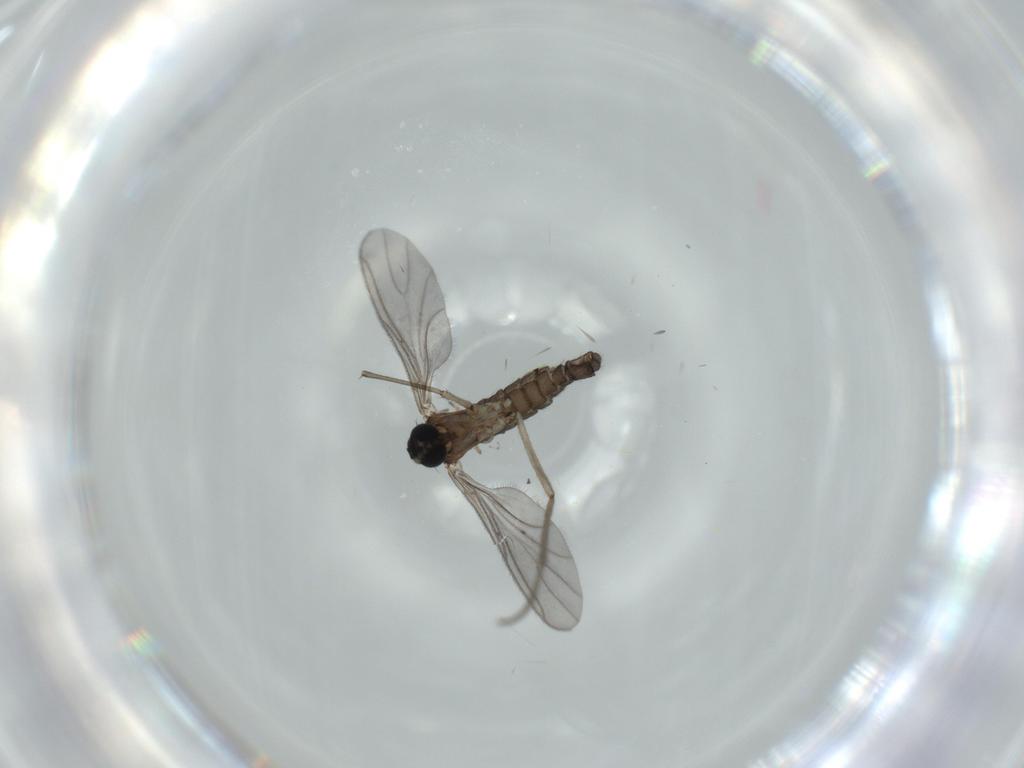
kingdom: Animalia
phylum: Arthropoda
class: Insecta
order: Diptera
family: Sciaridae
